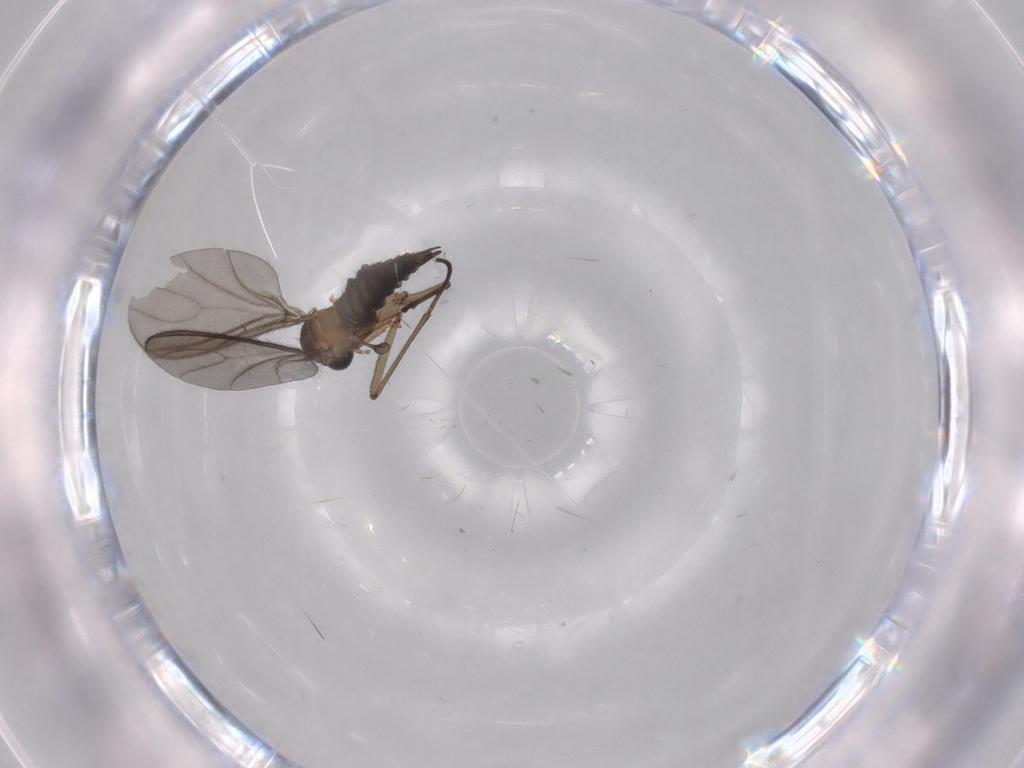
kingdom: Animalia
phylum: Arthropoda
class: Insecta
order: Diptera
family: Sciaridae
